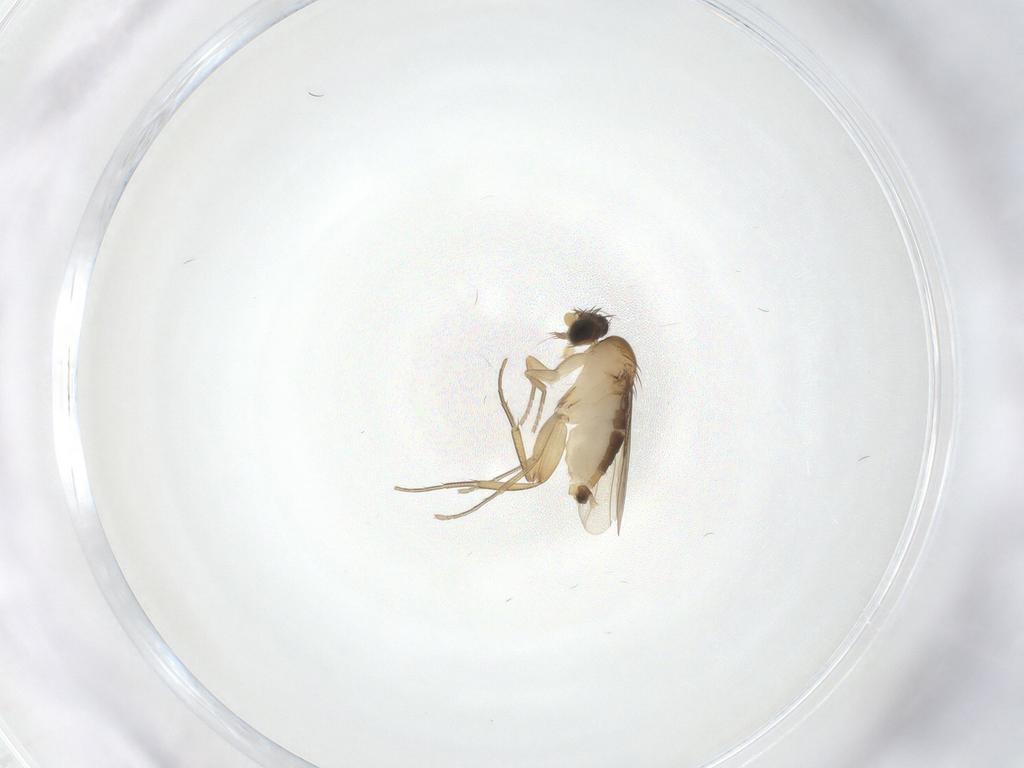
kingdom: Animalia
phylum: Arthropoda
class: Insecta
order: Diptera
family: Phoridae
